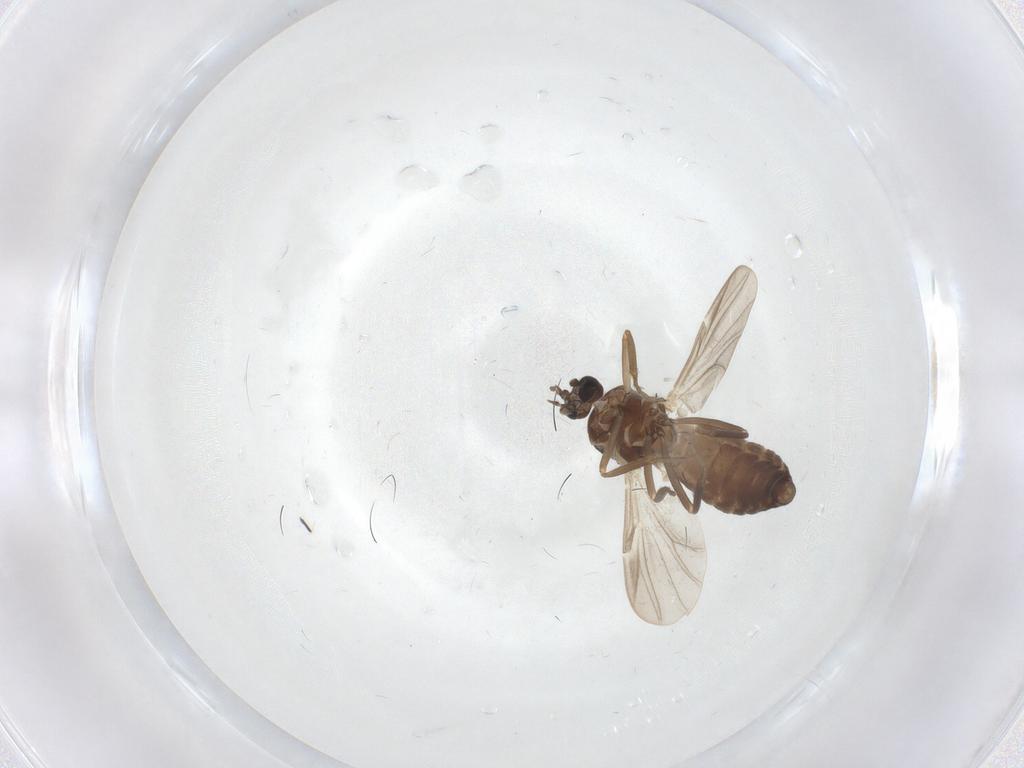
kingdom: Animalia
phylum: Arthropoda
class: Insecta
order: Diptera
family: Ceratopogonidae
